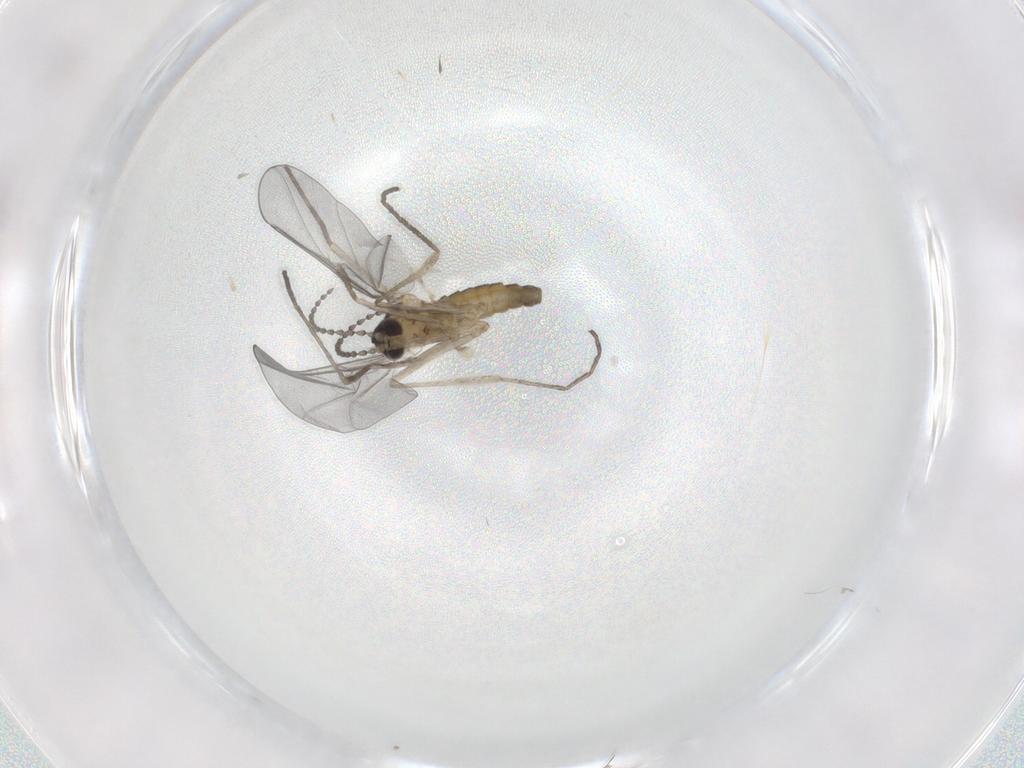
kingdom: Animalia
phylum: Arthropoda
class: Insecta
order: Diptera
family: Cecidomyiidae
